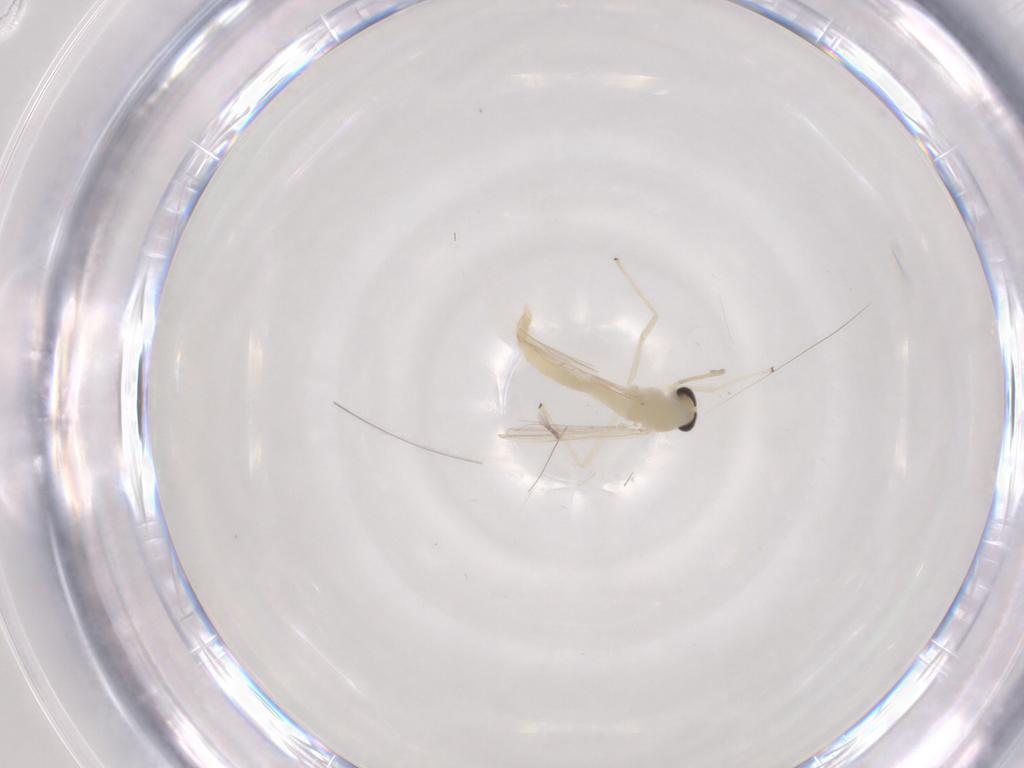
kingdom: Animalia
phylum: Arthropoda
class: Insecta
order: Diptera
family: Chironomidae
